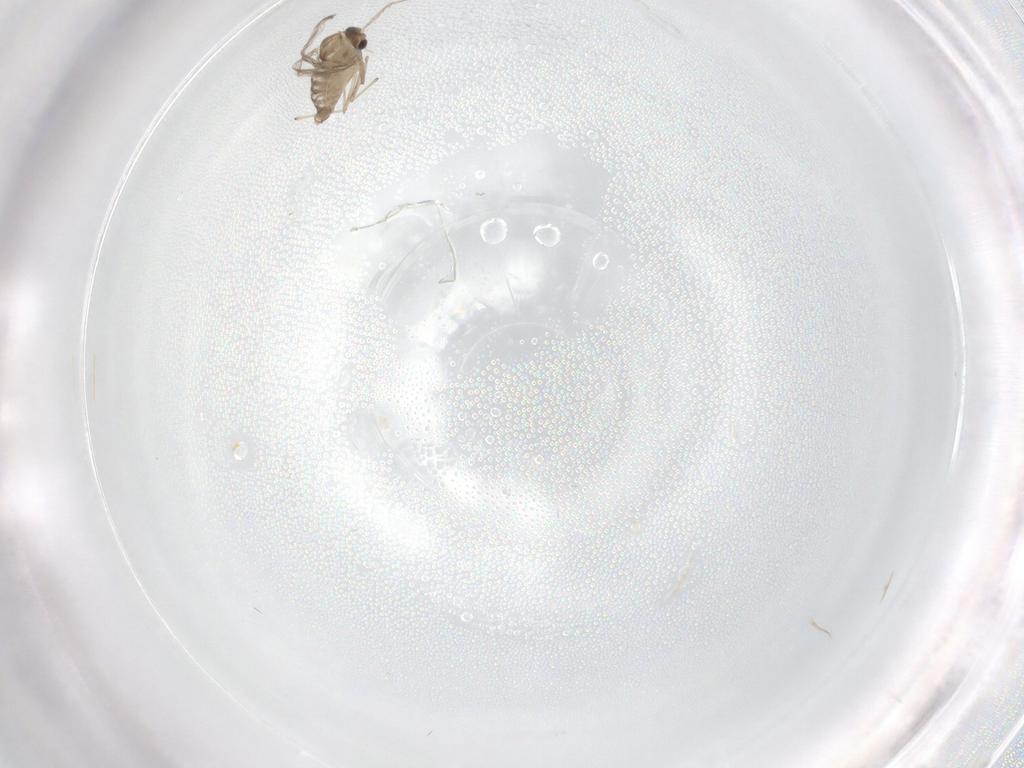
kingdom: Animalia
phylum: Arthropoda
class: Insecta
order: Diptera
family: Chironomidae
